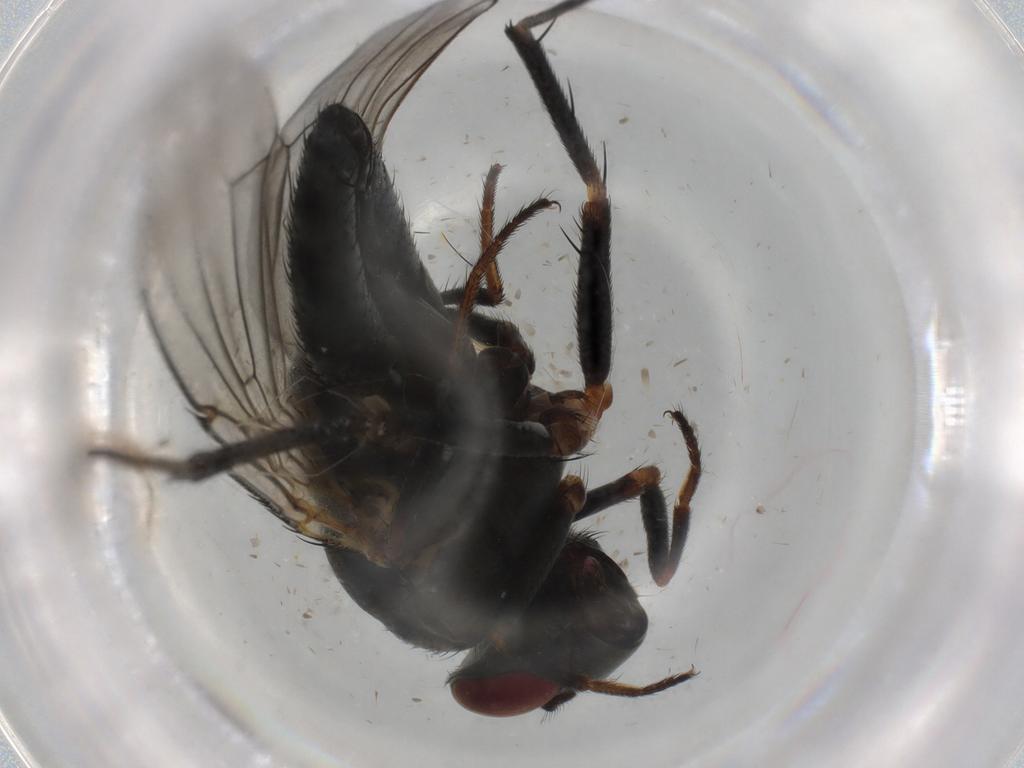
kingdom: Animalia
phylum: Arthropoda
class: Insecta
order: Diptera
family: Ephydridae
